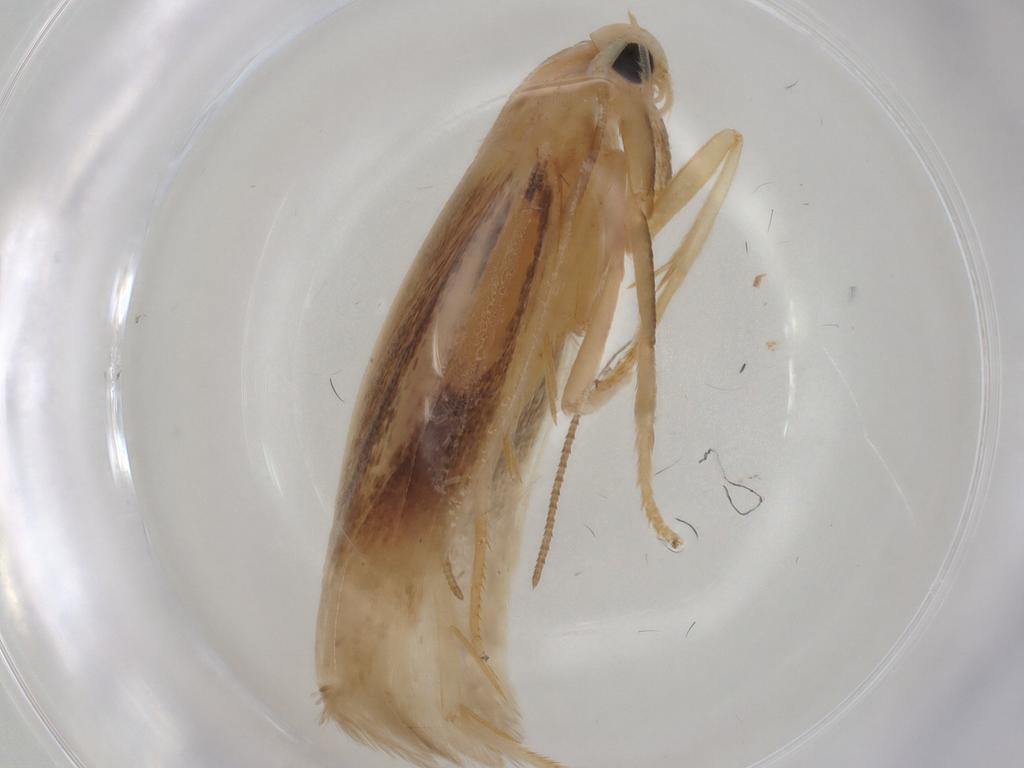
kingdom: Animalia
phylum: Arthropoda
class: Insecta
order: Lepidoptera
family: Geometridae
